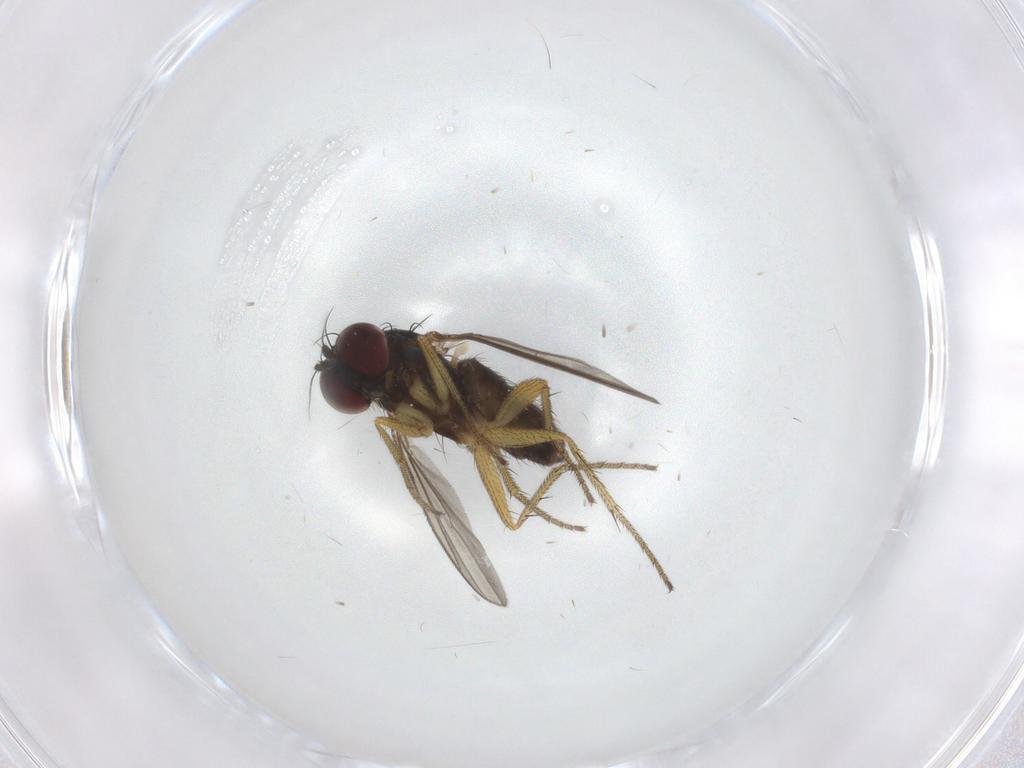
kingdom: Animalia
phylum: Arthropoda
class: Insecta
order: Diptera
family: Dolichopodidae
